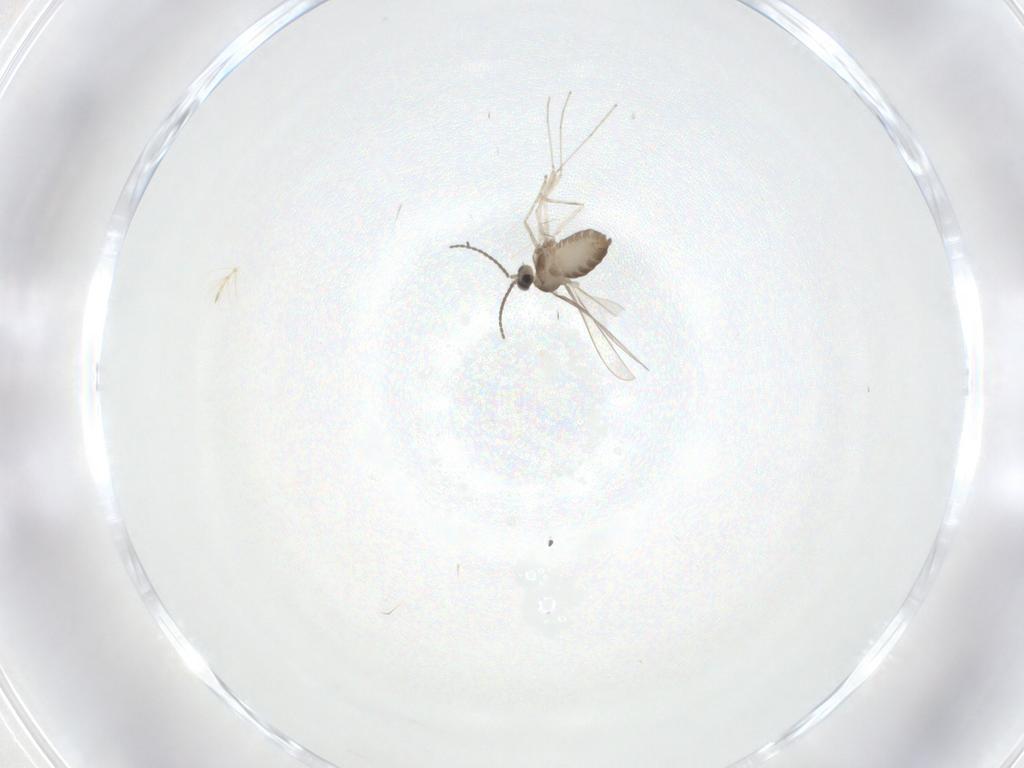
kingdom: Animalia
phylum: Arthropoda
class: Insecta
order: Diptera
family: Cecidomyiidae
